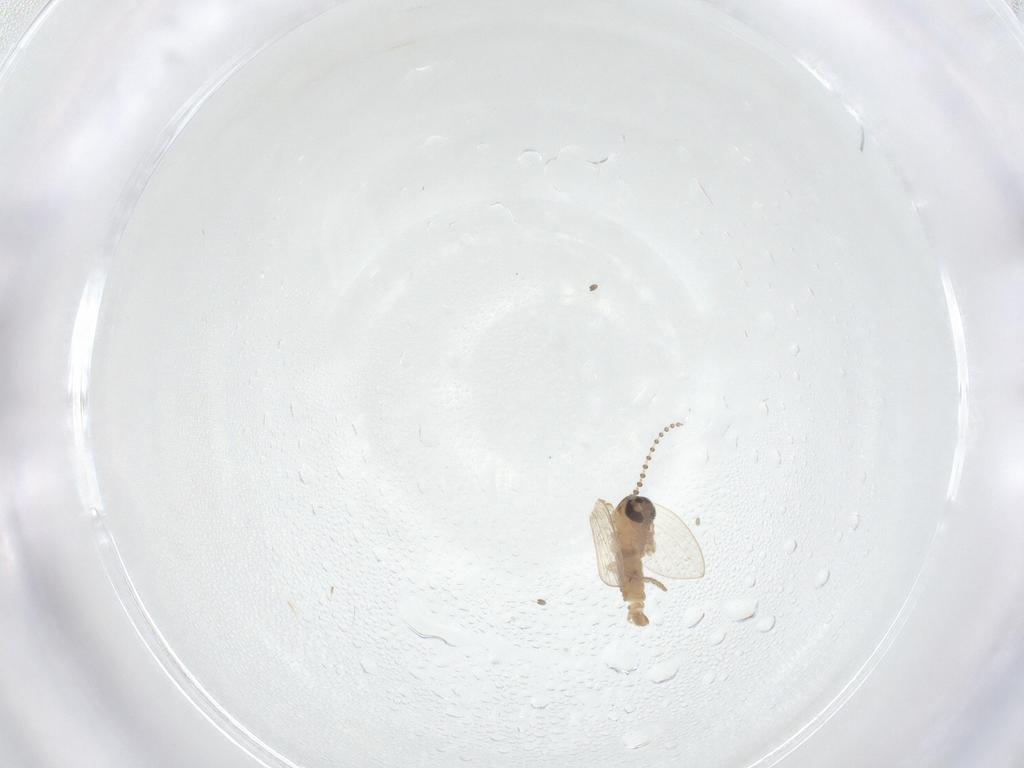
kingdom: Animalia
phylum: Arthropoda
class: Insecta
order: Diptera
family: Psychodidae
